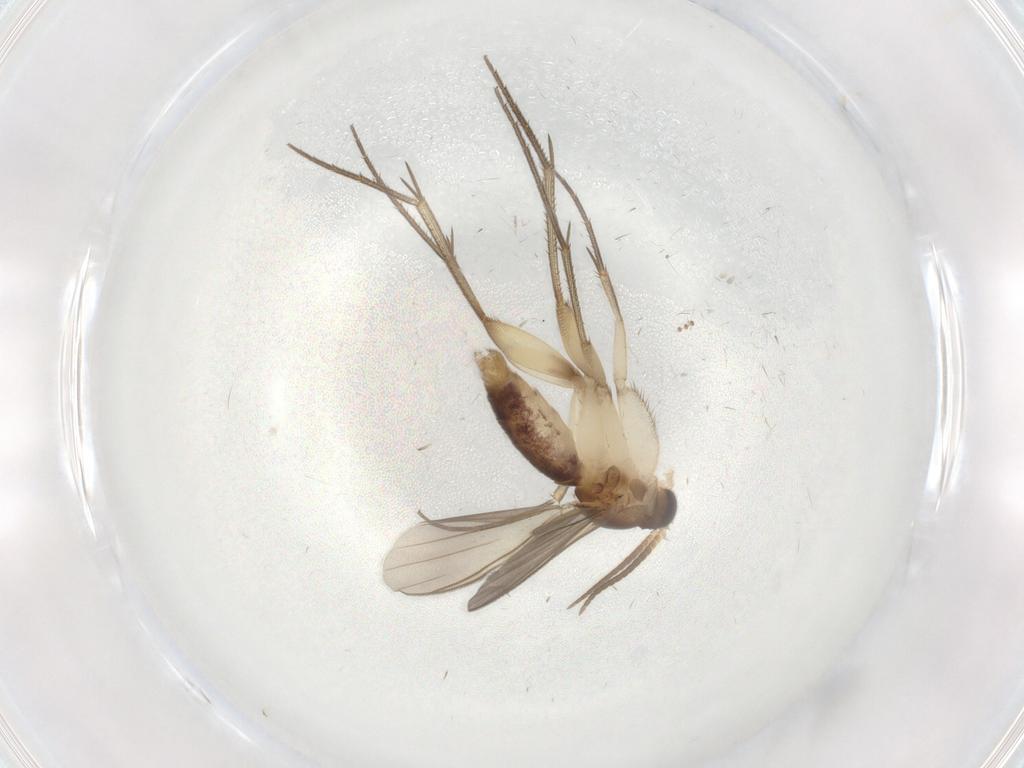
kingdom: Animalia
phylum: Arthropoda
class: Insecta
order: Diptera
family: Mycetophilidae
